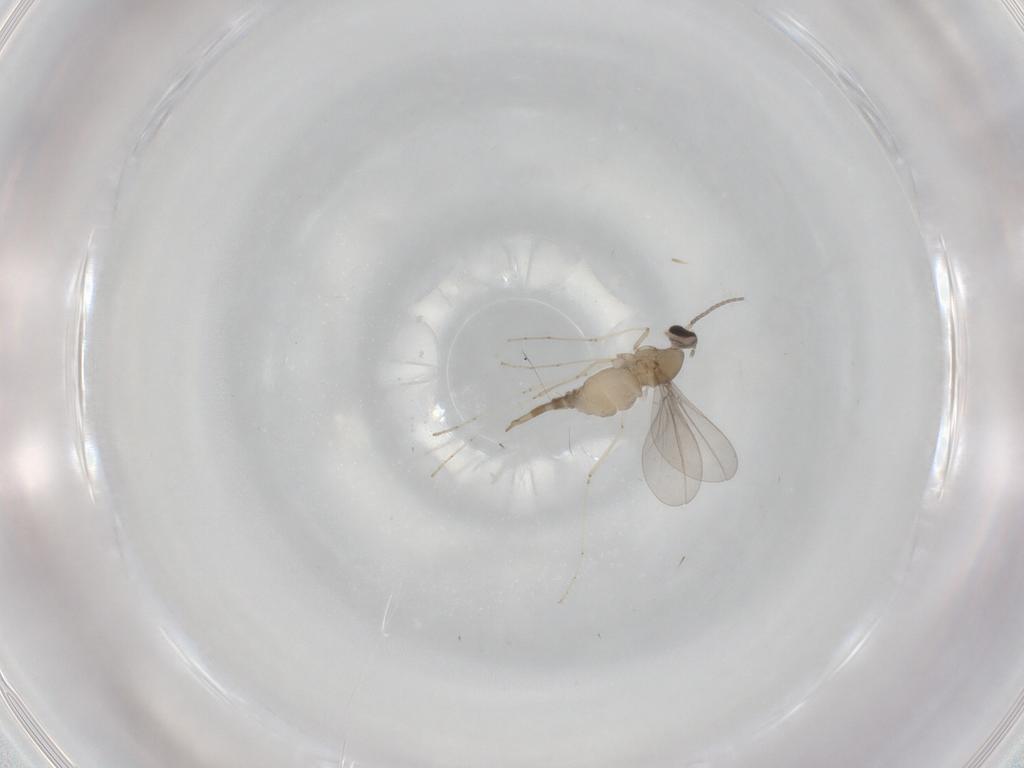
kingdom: Animalia
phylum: Arthropoda
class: Insecta
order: Diptera
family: Cecidomyiidae
